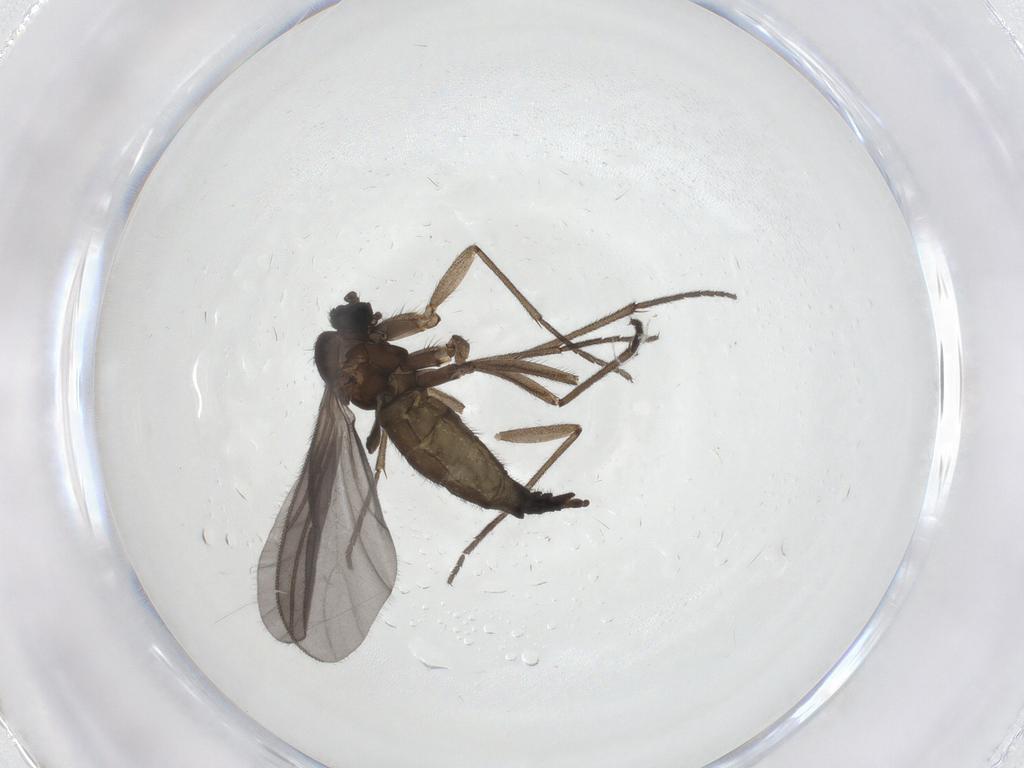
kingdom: Animalia
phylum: Arthropoda
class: Insecta
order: Diptera
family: Sciaridae
